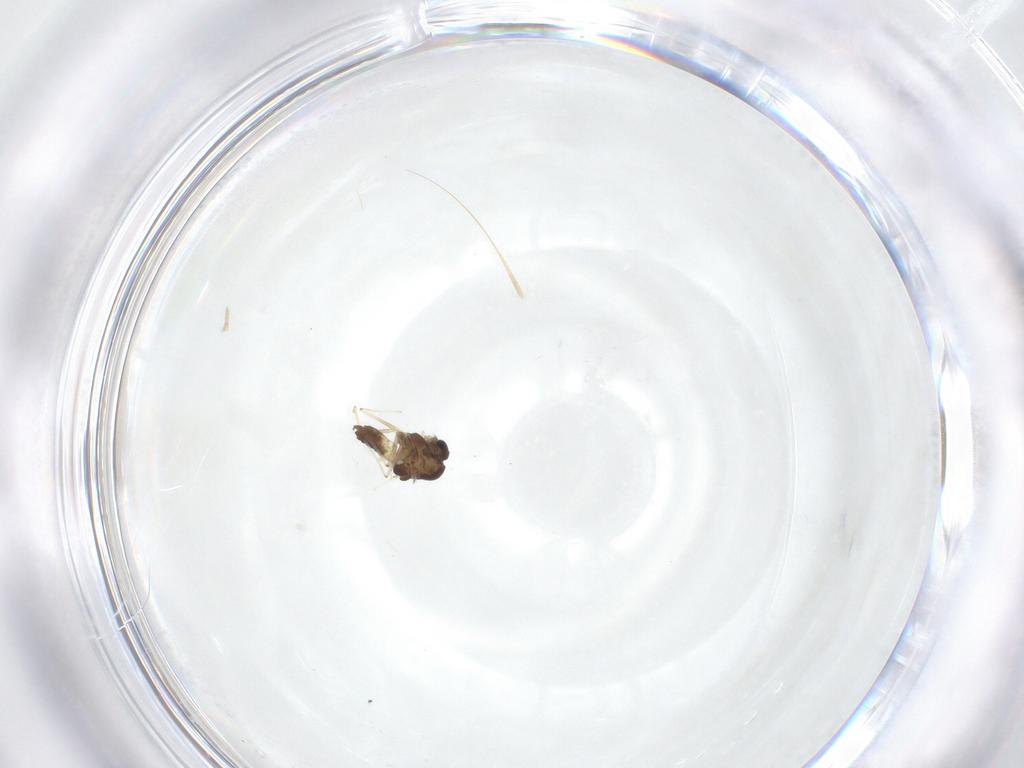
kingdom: Animalia
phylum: Arthropoda
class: Insecta
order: Diptera
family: Chironomidae
